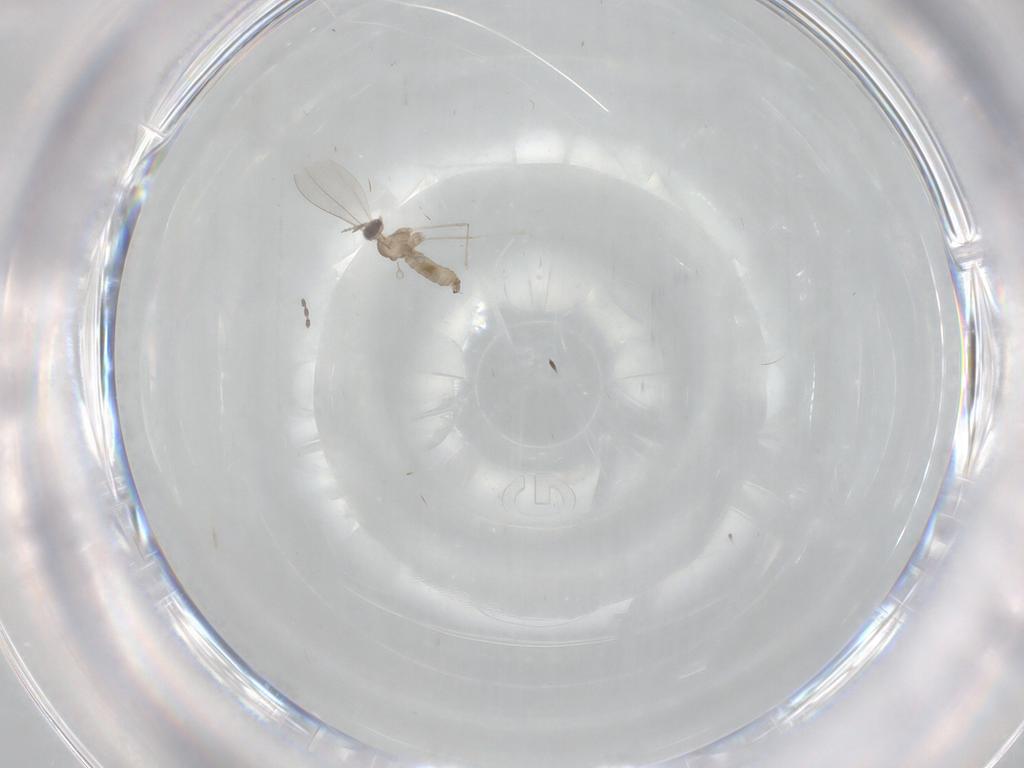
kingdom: Animalia
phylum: Arthropoda
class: Insecta
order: Diptera
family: Cecidomyiidae
